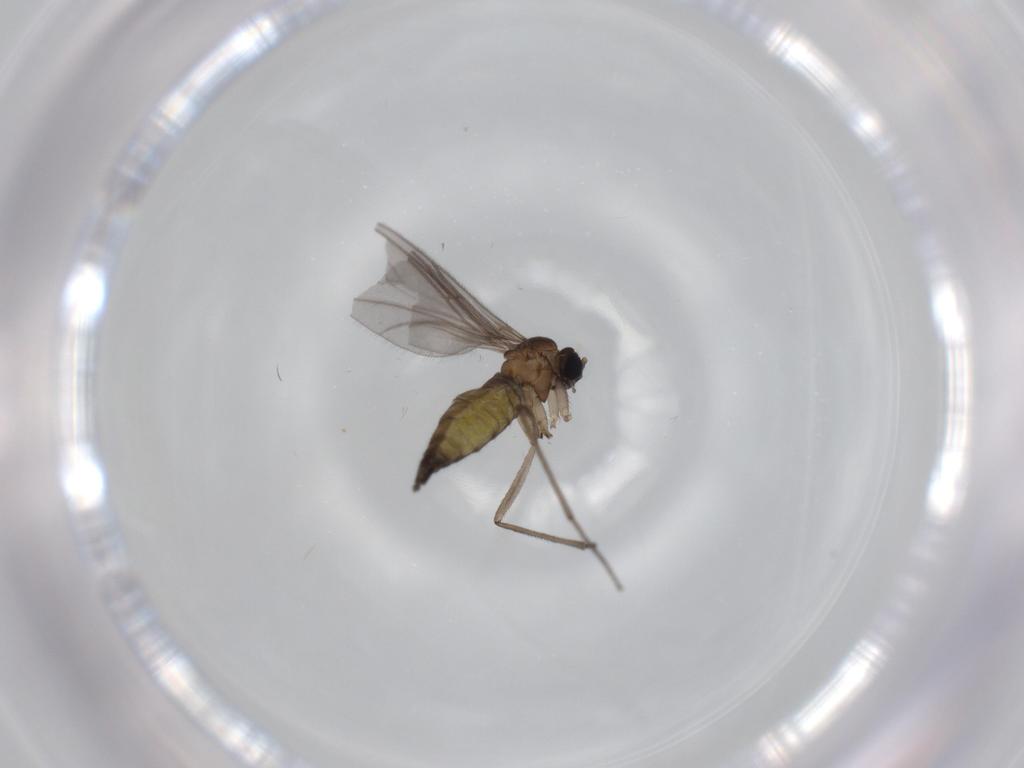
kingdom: Animalia
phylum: Arthropoda
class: Insecta
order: Diptera
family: Sciaridae
